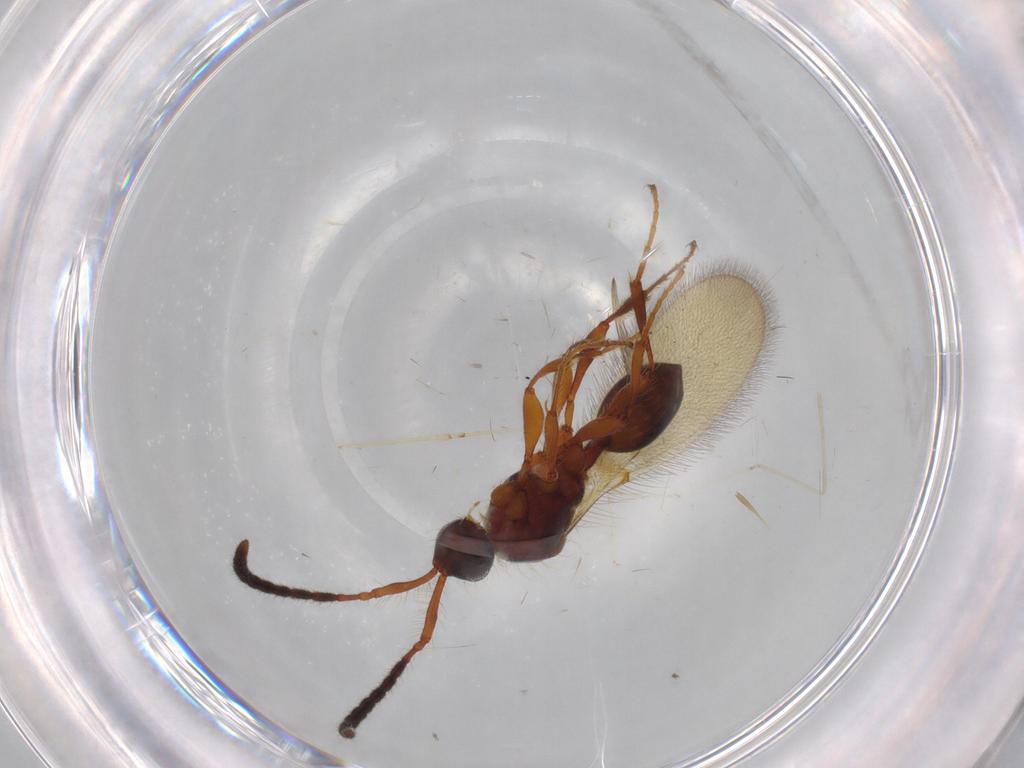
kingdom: Animalia
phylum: Arthropoda
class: Insecta
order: Hymenoptera
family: Diapriidae
